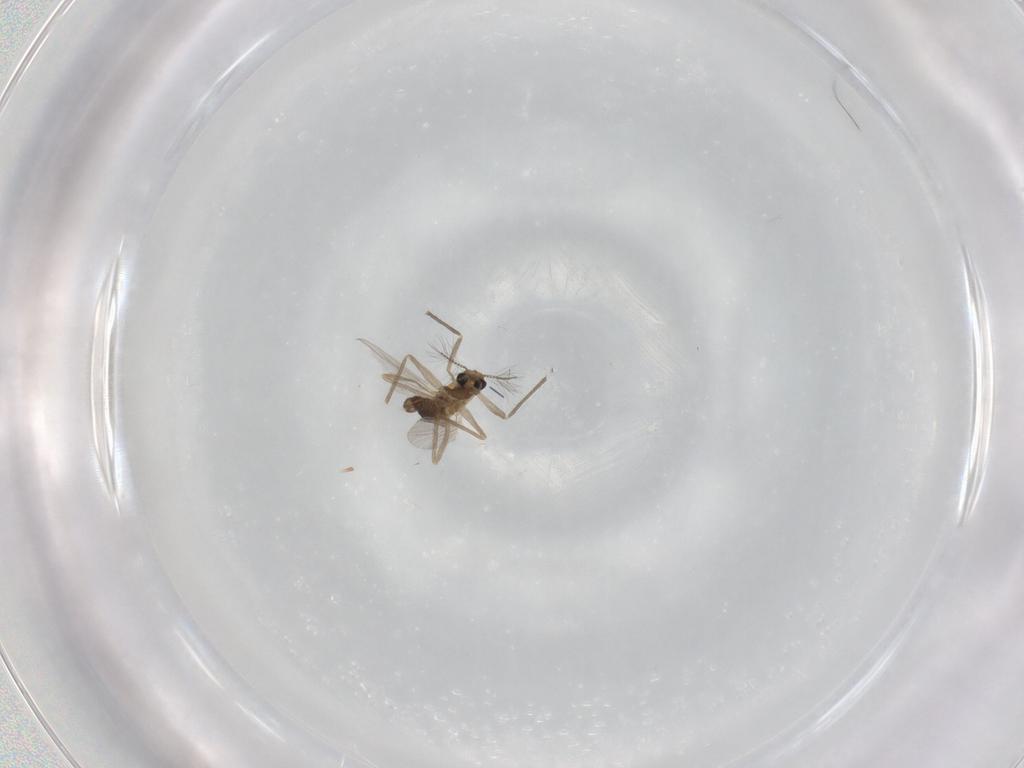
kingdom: Animalia
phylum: Arthropoda
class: Insecta
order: Diptera
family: Chironomidae
